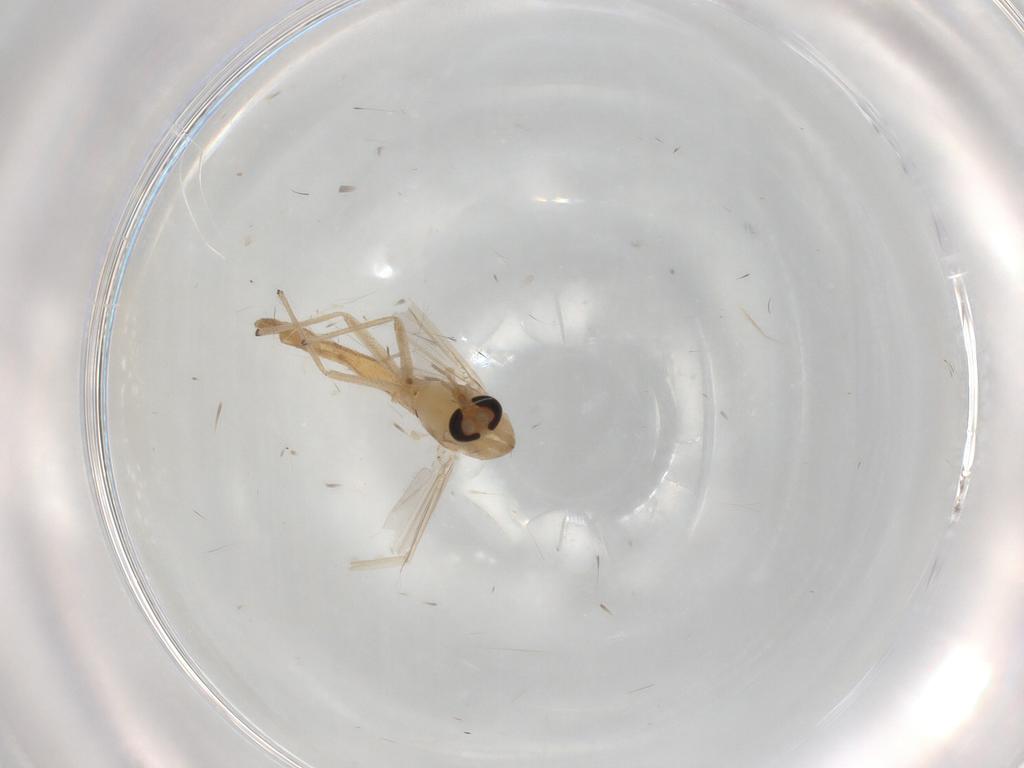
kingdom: Animalia
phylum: Arthropoda
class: Insecta
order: Diptera
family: Chironomidae
